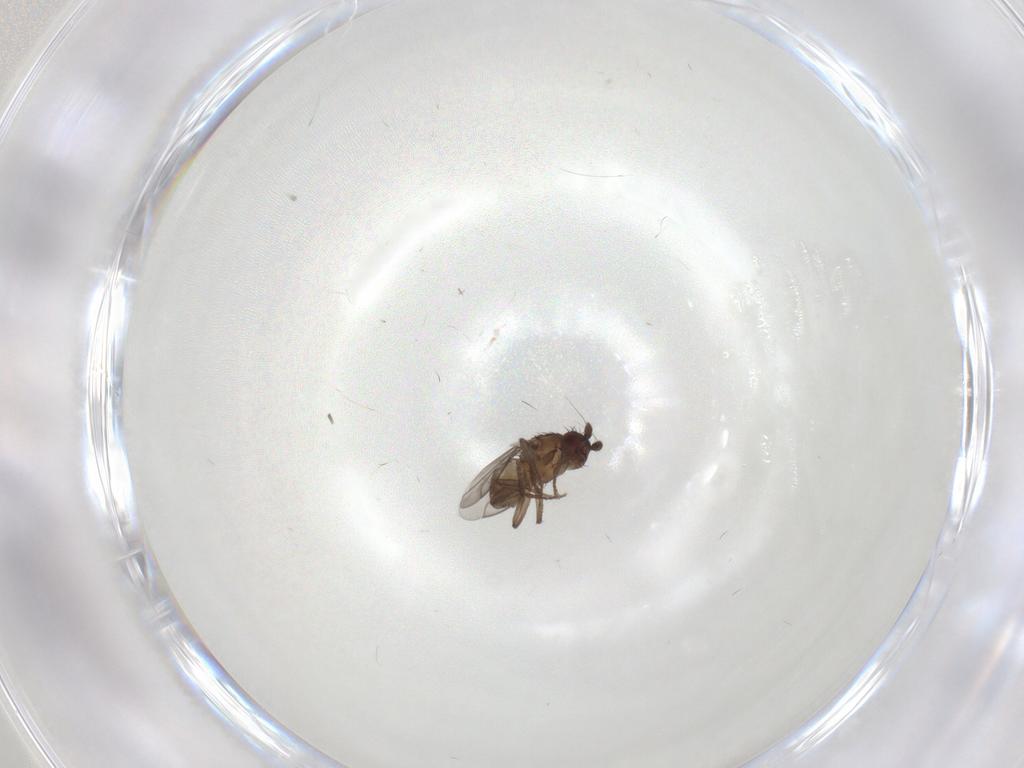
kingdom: Animalia
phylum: Arthropoda
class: Insecta
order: Diptera
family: Sphaeroceridae
